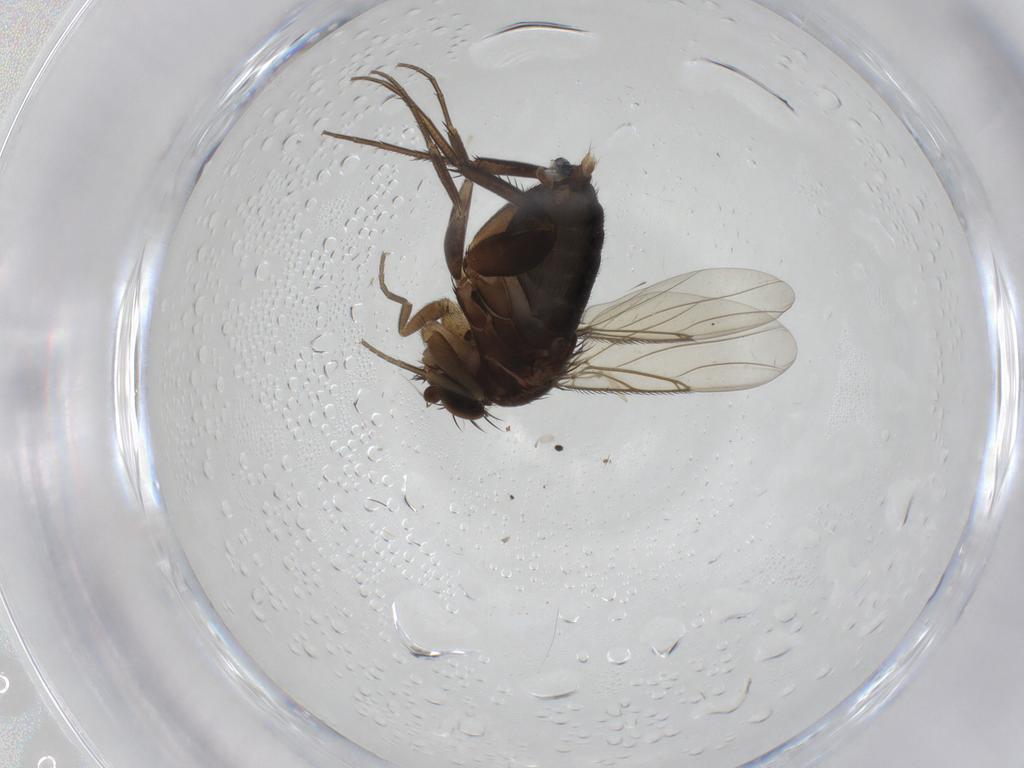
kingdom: Animalia
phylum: Arthropoda
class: Insecta
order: Diptera
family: Phoridae
